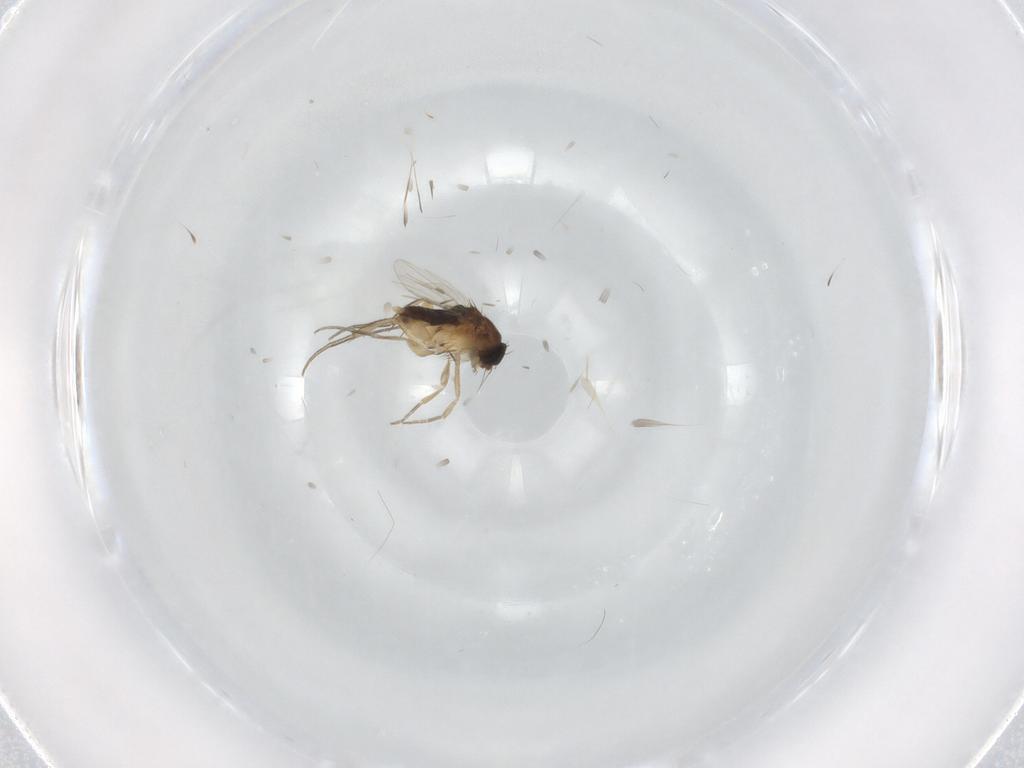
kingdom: Animalia
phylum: Arthropoda
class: Insecta
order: Diptera
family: Phoridae
